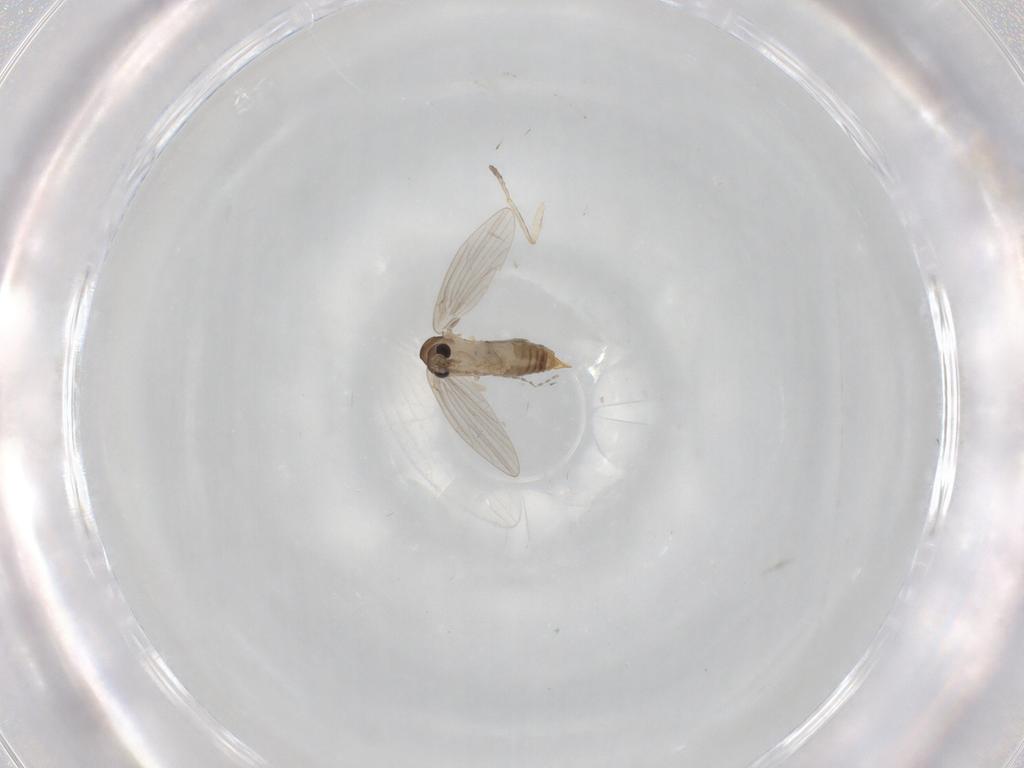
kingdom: Animalia
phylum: Arthropoda
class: Insecta
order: Diptera
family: Psychodidae
